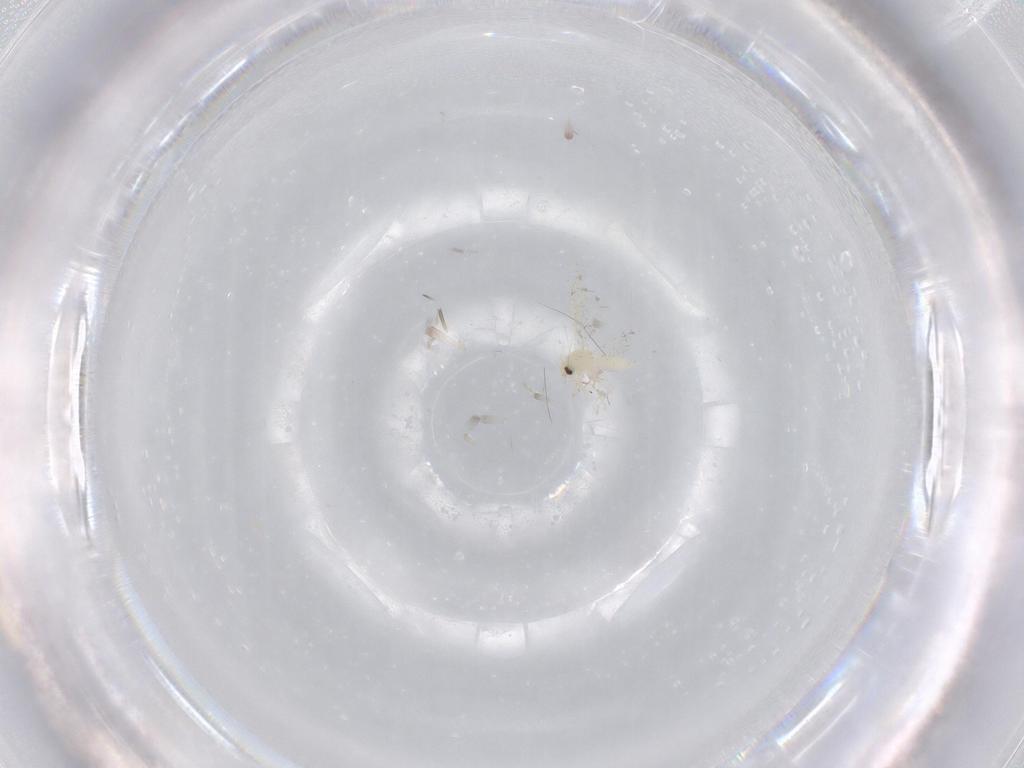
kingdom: Animalia
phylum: Arthropoda
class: Insecta
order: Hemiptera
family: Aleyrodidae
